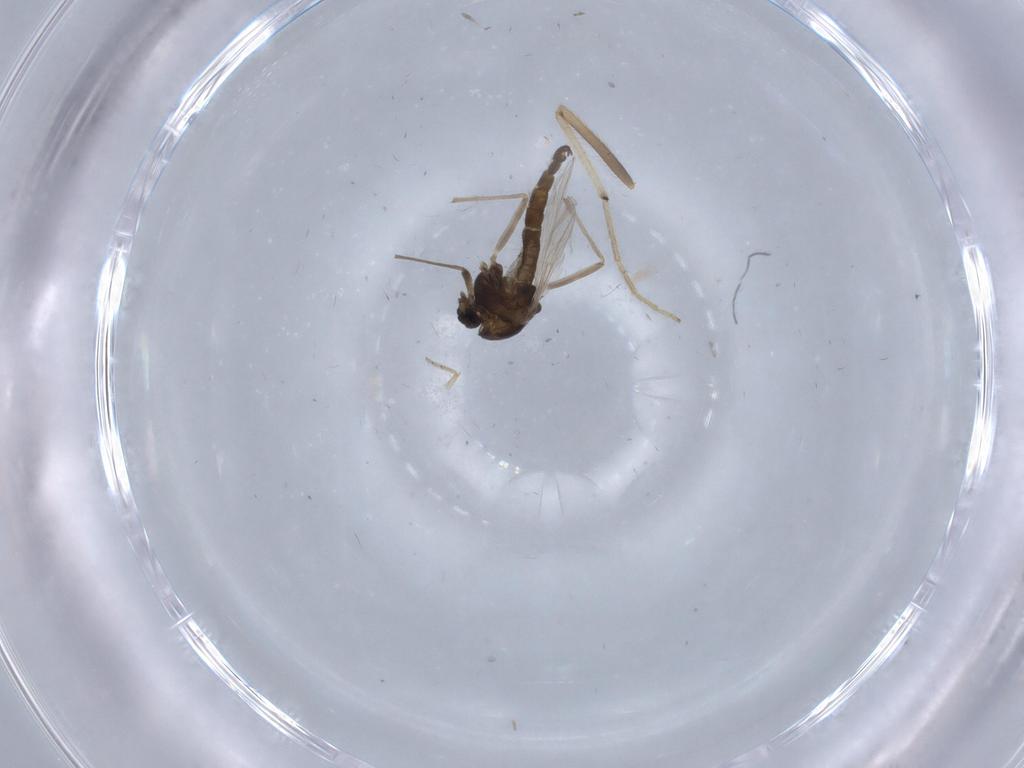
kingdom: Animalia
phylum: Arthropoda
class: Insecta
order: Diptera
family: Chironomidae
